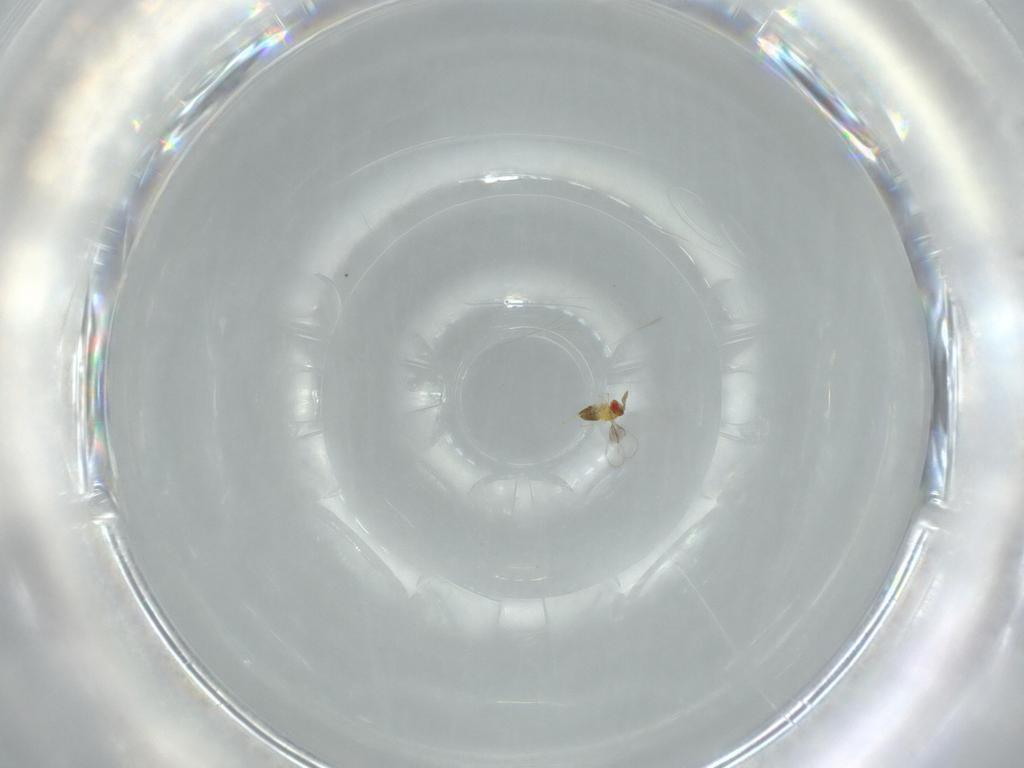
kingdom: Animalia
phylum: Arthropoda
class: Insecta
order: Hymenoptera
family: Trichogrammatidae
